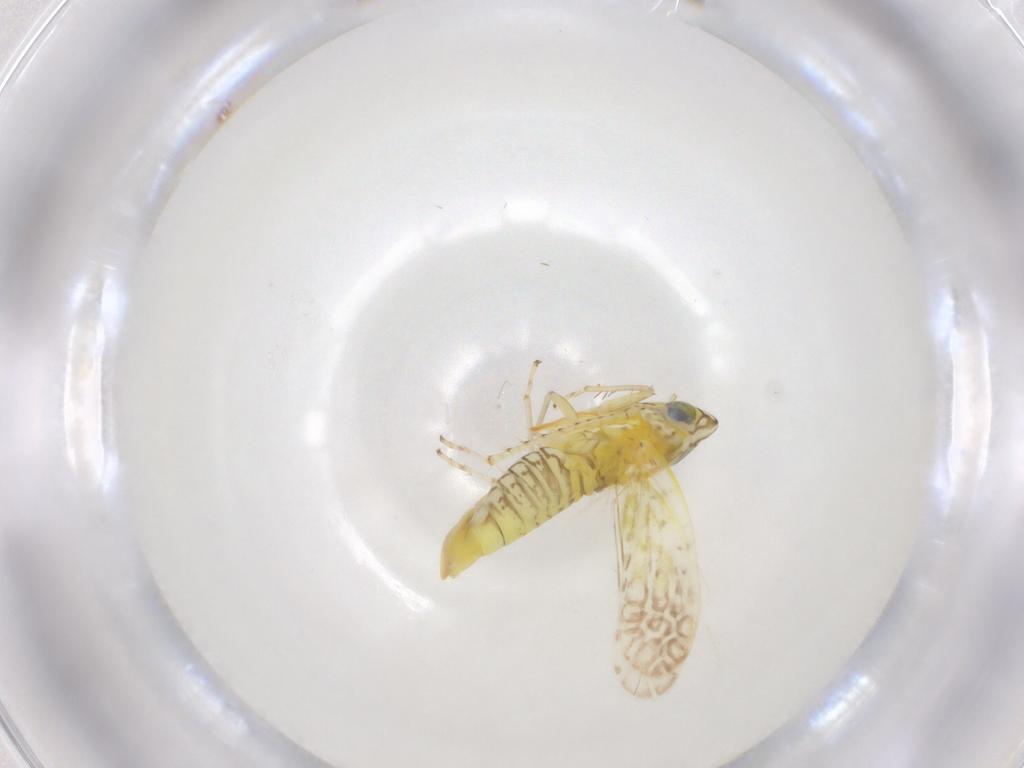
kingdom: Animalia
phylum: Arthropoda
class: Insecta
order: Hemiptera
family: Cicadellidae
